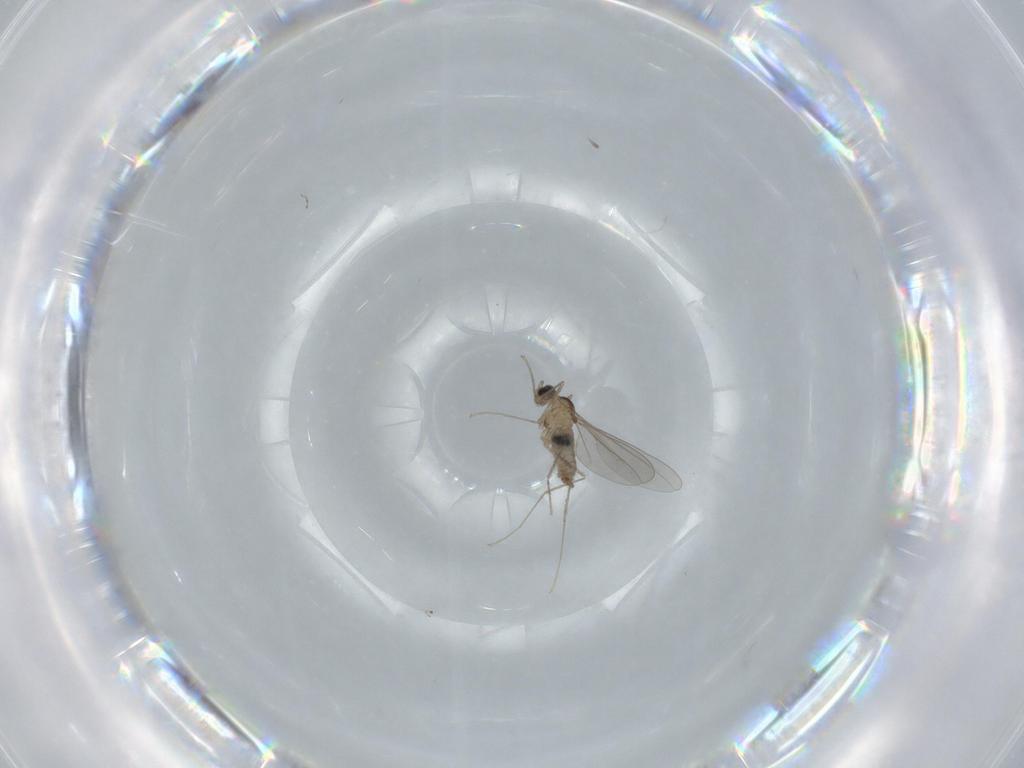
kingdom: Animalia
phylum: Arthropoda
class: Insecta
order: Diptera
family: Cecidomyiidae
